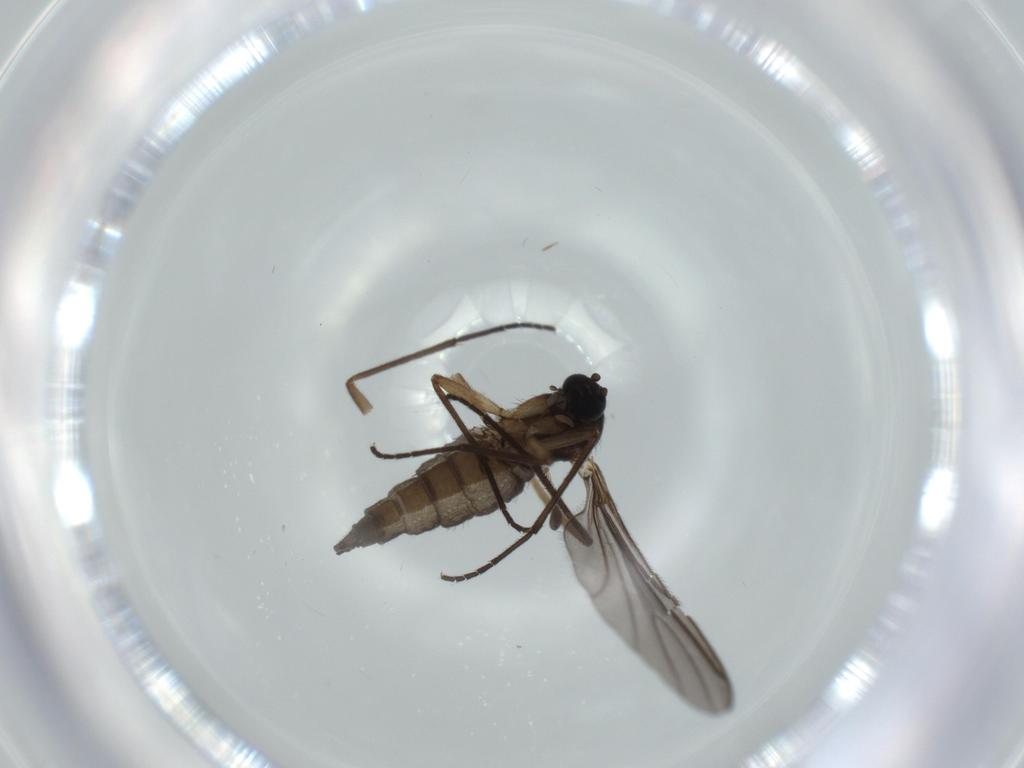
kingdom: Animalia
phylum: Arthropoda
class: Insecta
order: Diptera
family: Sciaridae
